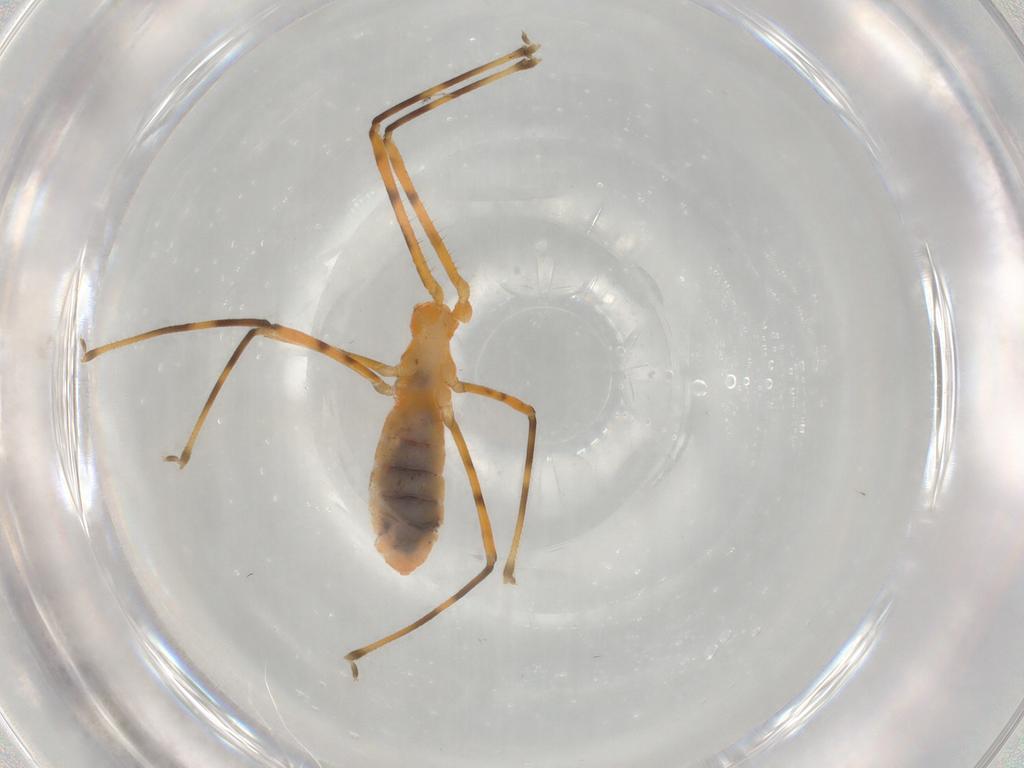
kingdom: Animalia
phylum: Arthropoda
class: Insecta
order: Hemiptera
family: Reduviidae
